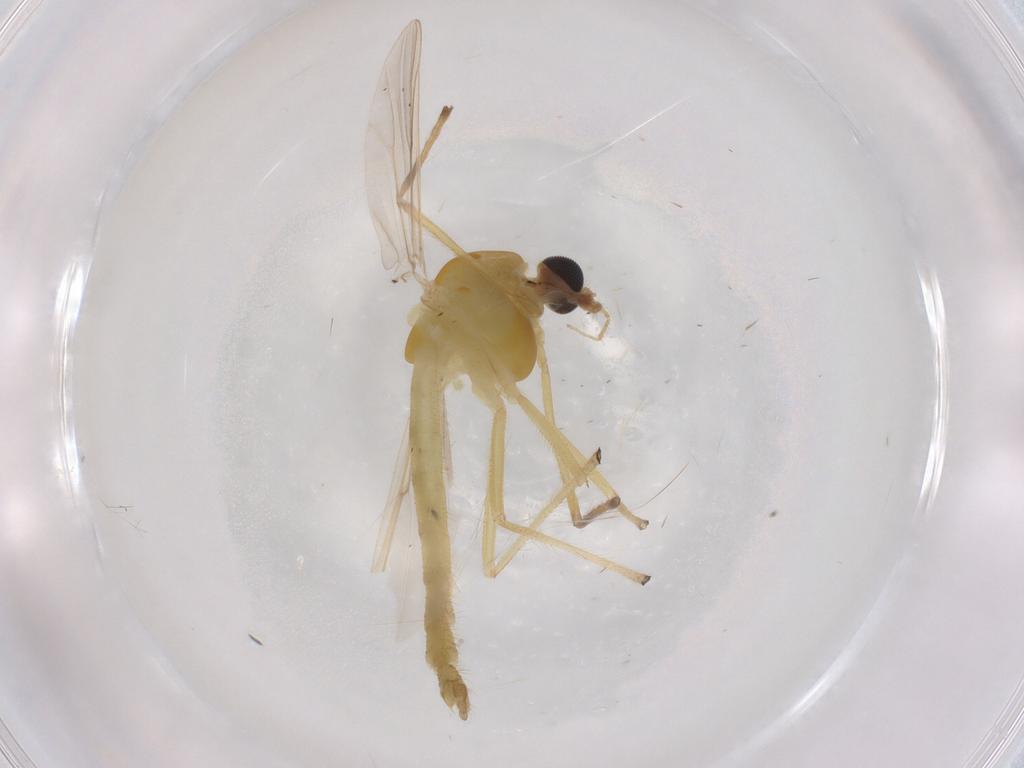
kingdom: Animalia
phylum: Arthropoda
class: Insecta
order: Diptera
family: Chironomidae
